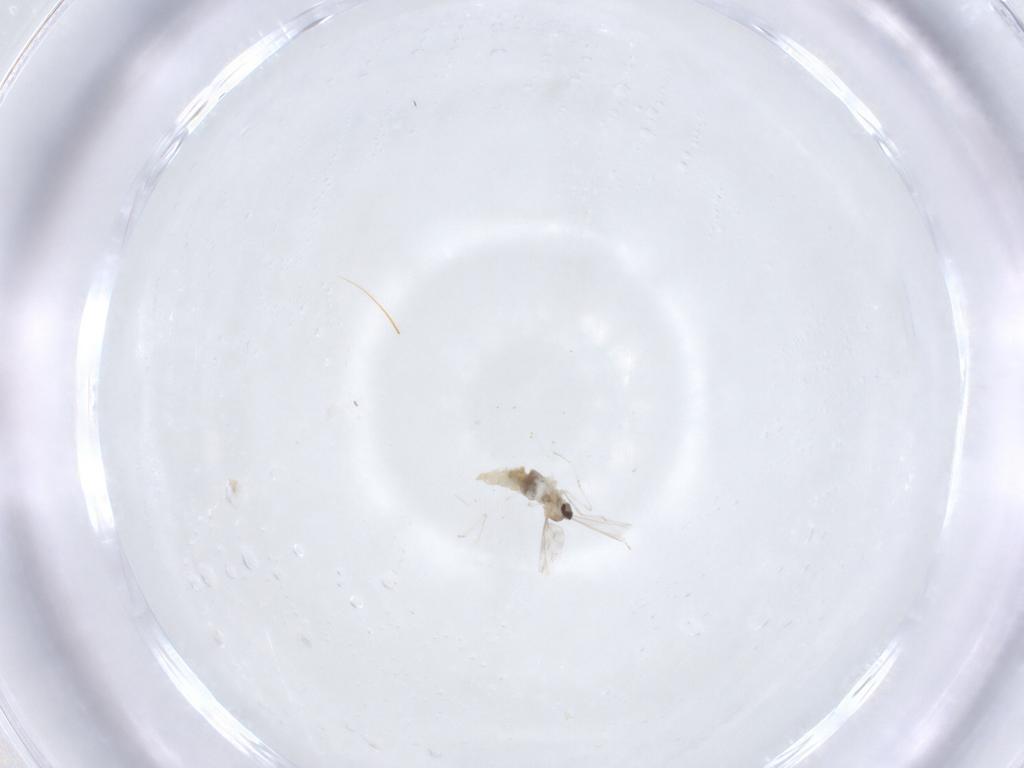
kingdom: Animalia
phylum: Arthropoda
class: Insecta
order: Diptera
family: Cecidomyiidae
